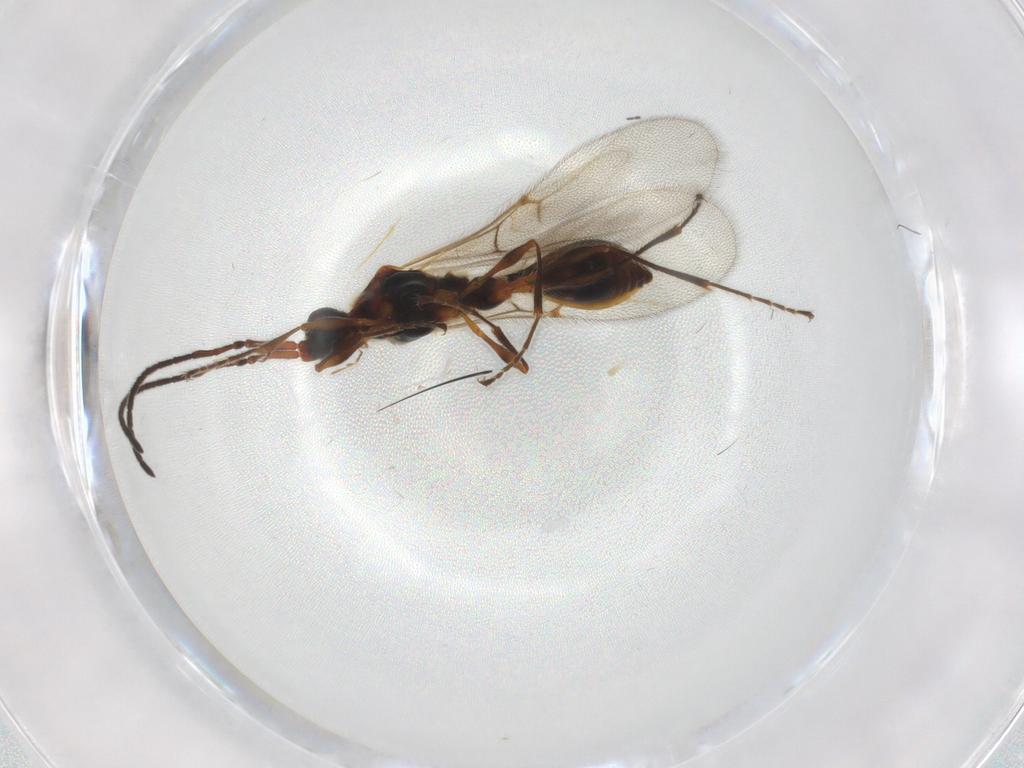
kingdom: Animalia
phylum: Arthropoda
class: Insecta
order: Hymenoptera
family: Diapriidae
